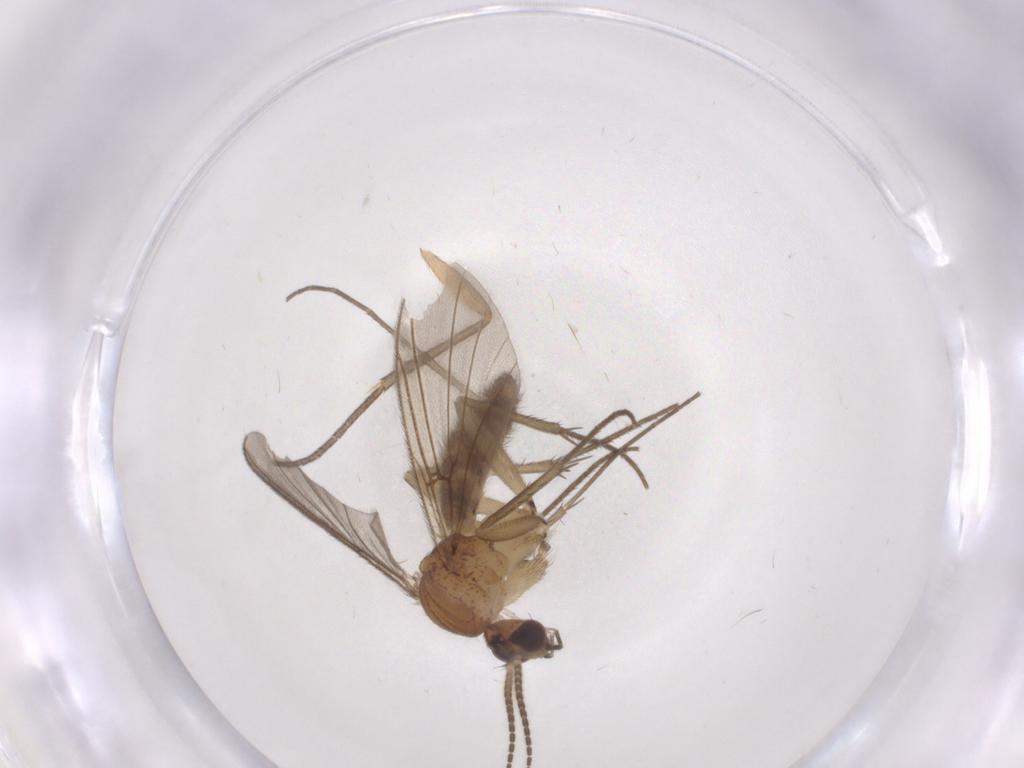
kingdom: Animalia
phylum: Arthropoda
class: Insecta
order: Diptera
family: Mycetophilidae
